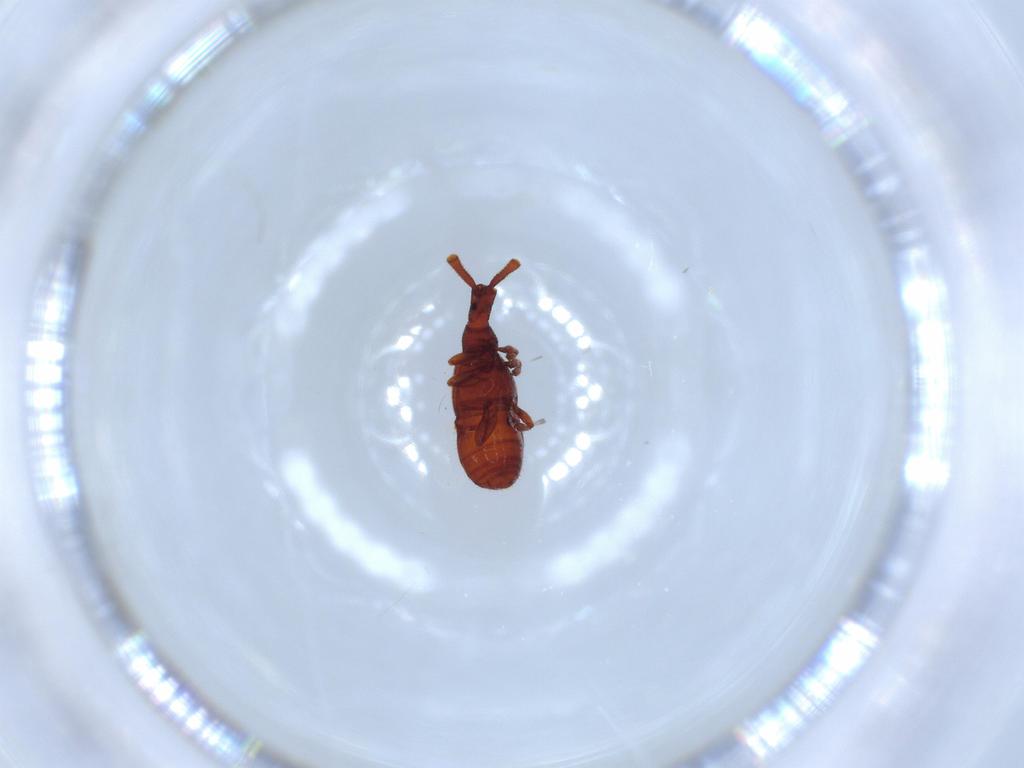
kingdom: Animalia
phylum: Arthropoda
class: Insecta
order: Coleoptera
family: Staphylinidae
